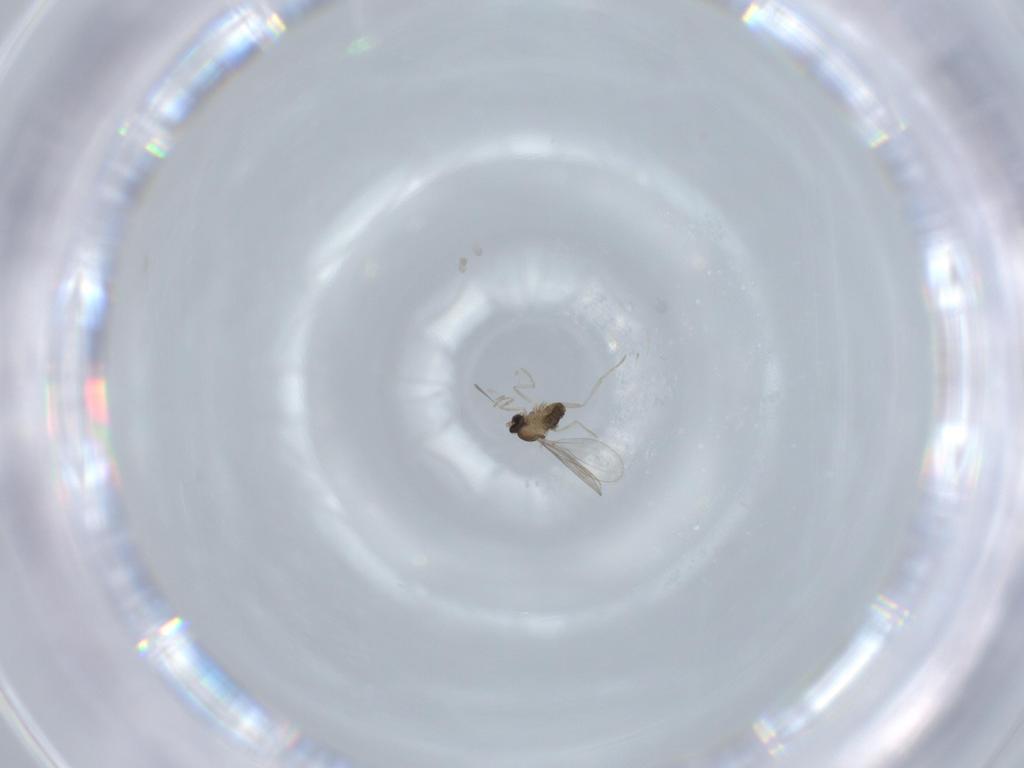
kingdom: Animalia
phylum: Arthropoda
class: Insecta
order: Diptera
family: Cecidomyiidae
